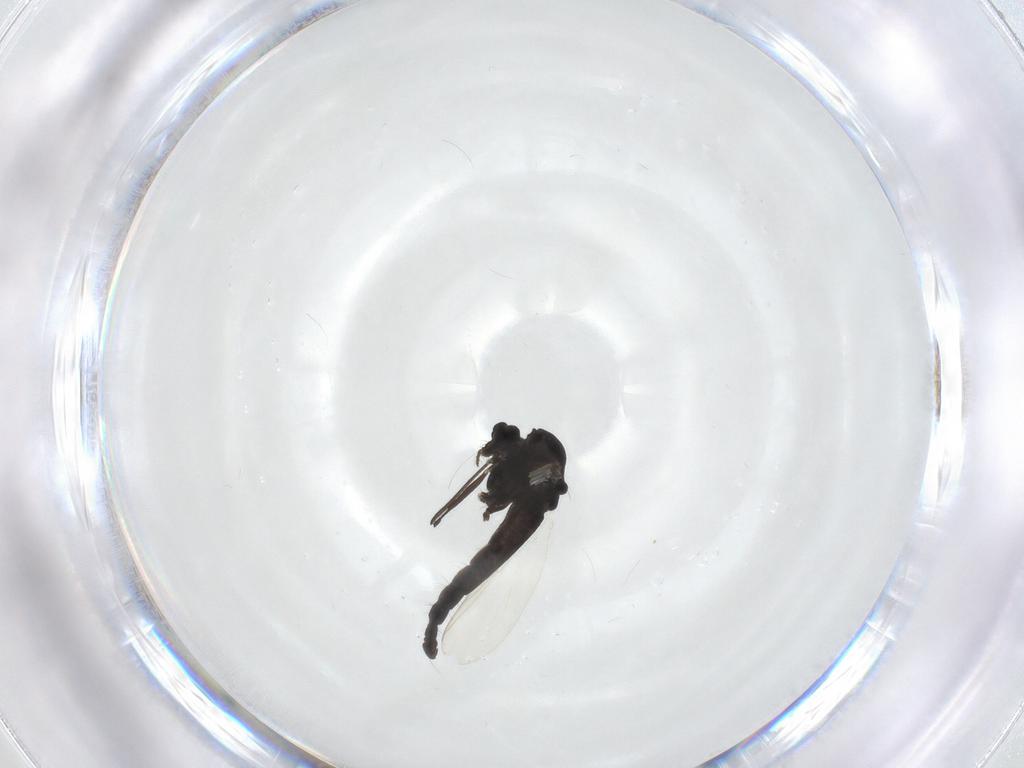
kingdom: Animalia
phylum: Arthropoda
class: Insecta
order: Diptera
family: Chironomidae
